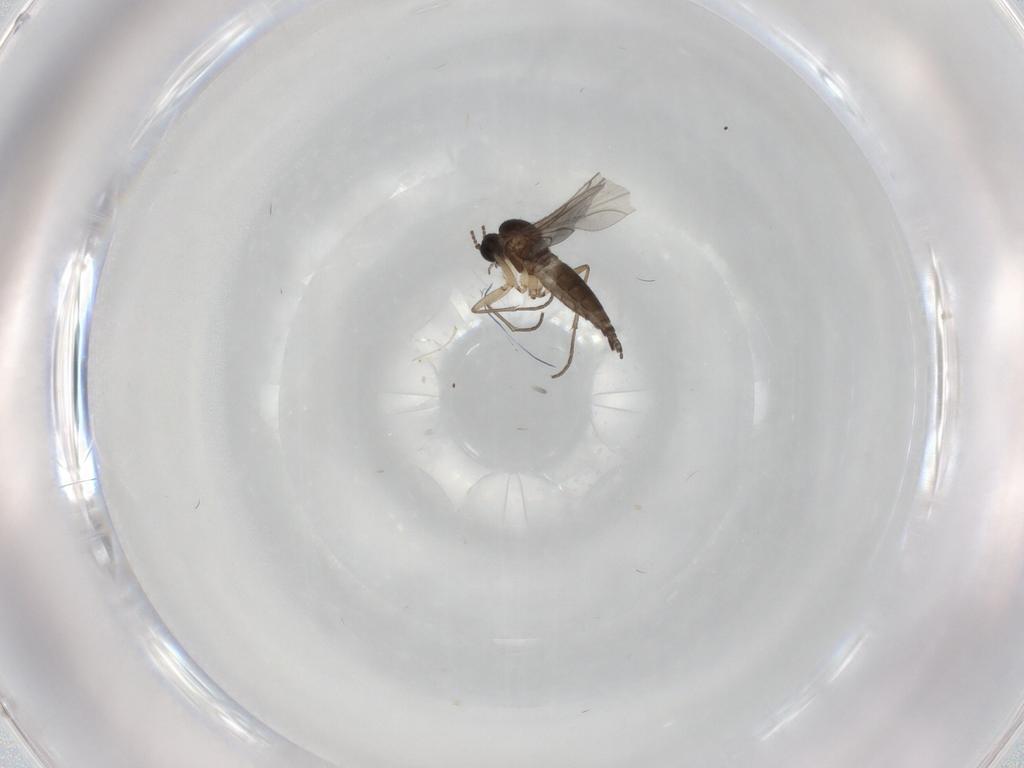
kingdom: Animalia
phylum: Arthropoda
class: Insecta
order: Diptera
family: Sciaridae
